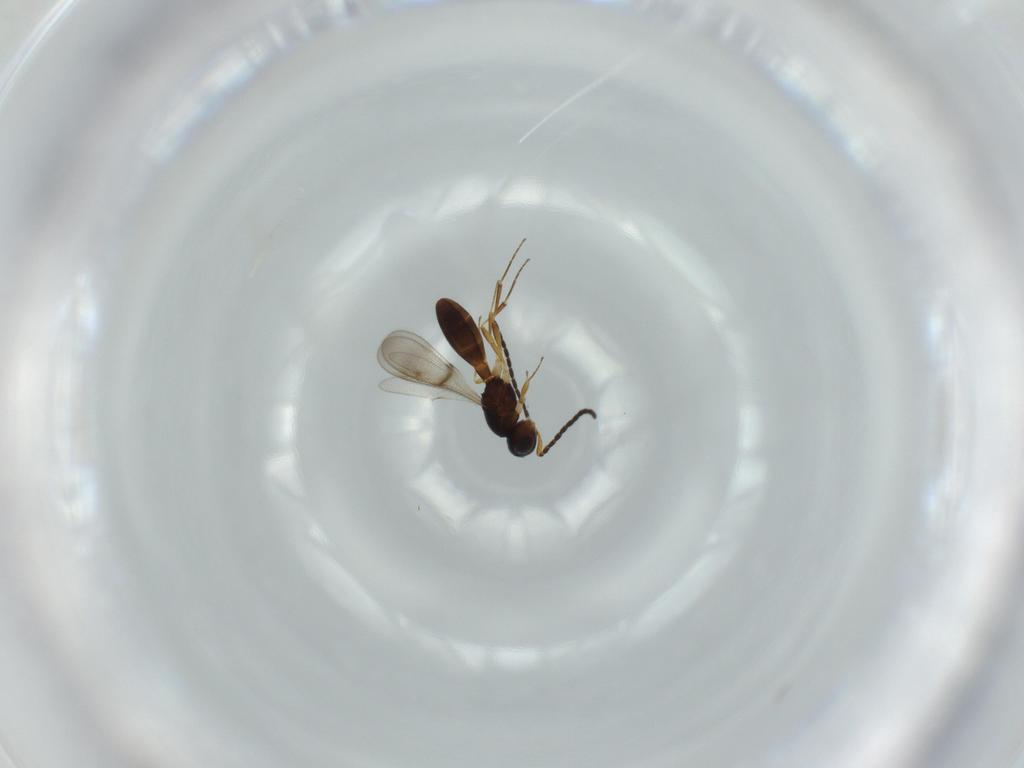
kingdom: Animalia
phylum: Arthropoda
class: Insecta
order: Hymenoptera
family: Scelionidae
